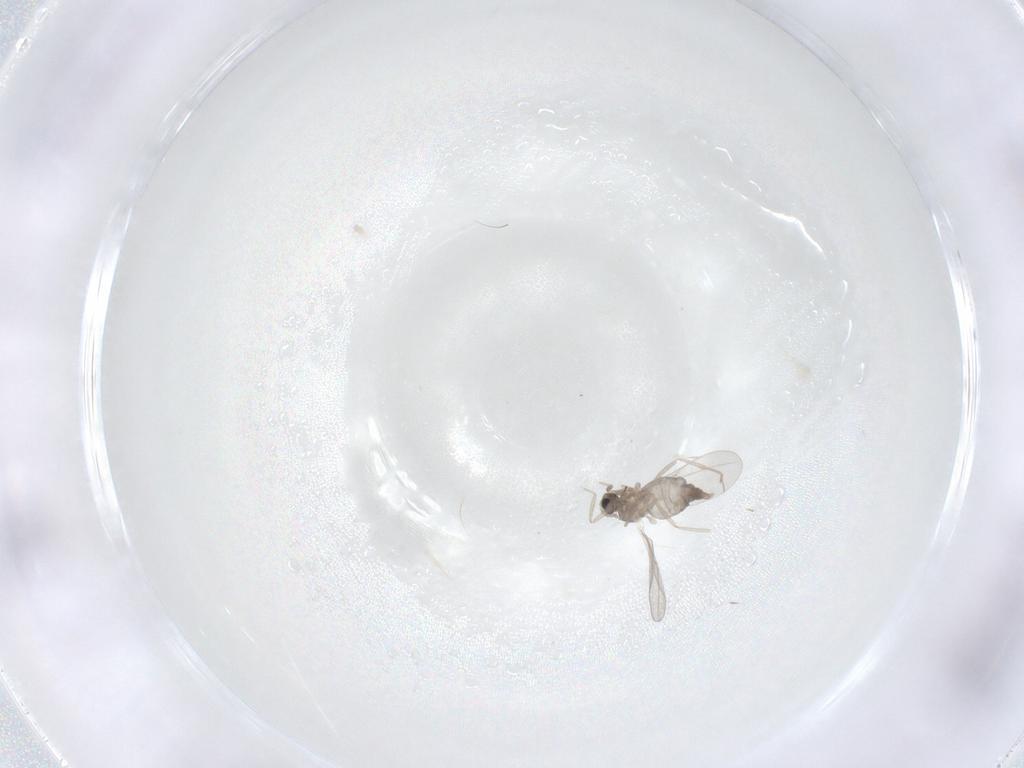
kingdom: Animalia
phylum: Arthropoda
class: Insecta
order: Diptera
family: Cecidomyiidae
